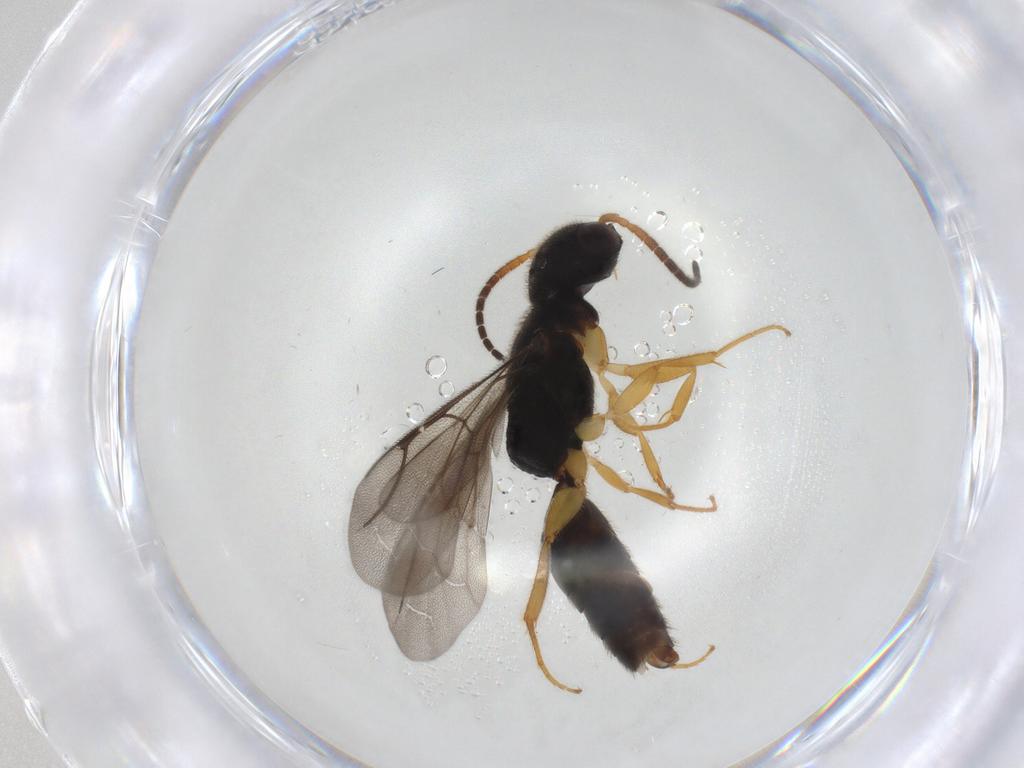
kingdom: Animalia
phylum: Arthropoda
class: Insecta
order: Hymenoptera
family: Bethylidae
